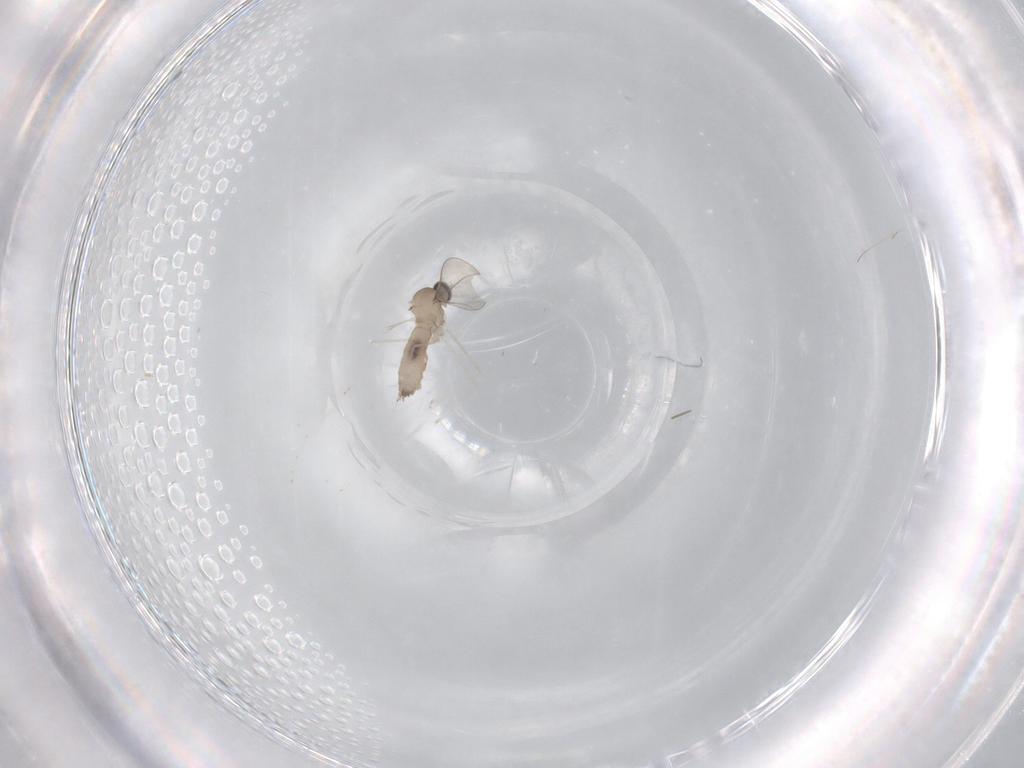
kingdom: Animalia
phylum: Arthropoda
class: Insecta
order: Diptera
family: Cecidomyiidae
